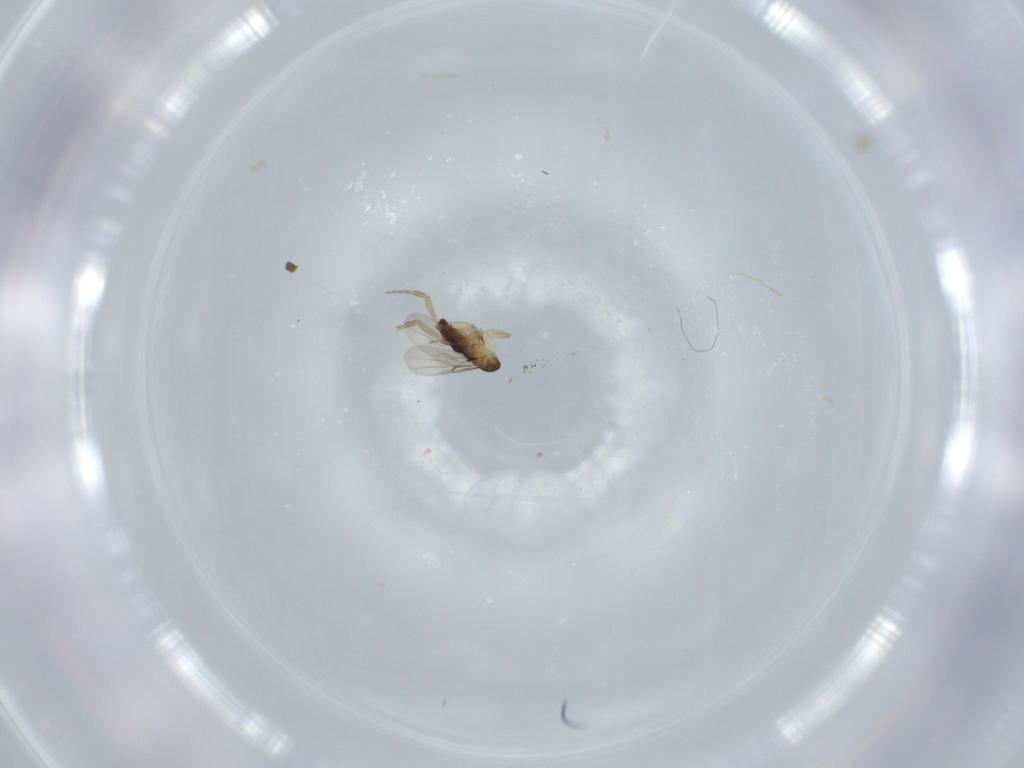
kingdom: Animalia
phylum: Arthropoda
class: Insecta
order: Diptera
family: Phoridae
